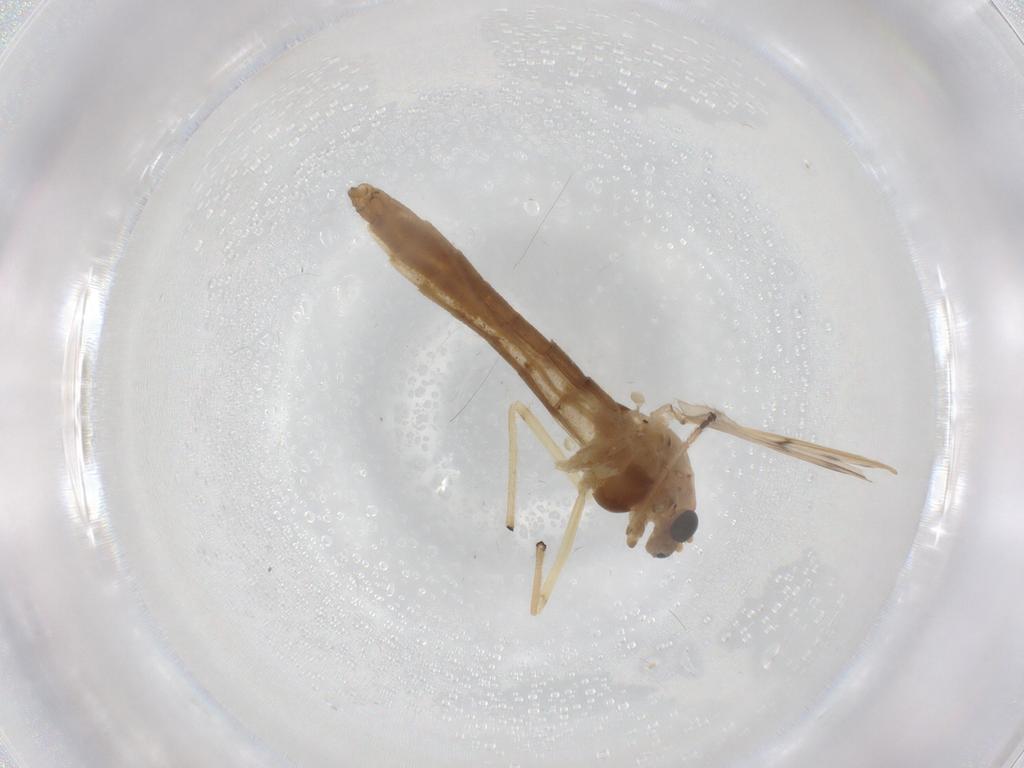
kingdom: Animalia
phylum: Arthropoda
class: Insecta
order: Diptera
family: Chironomidae
